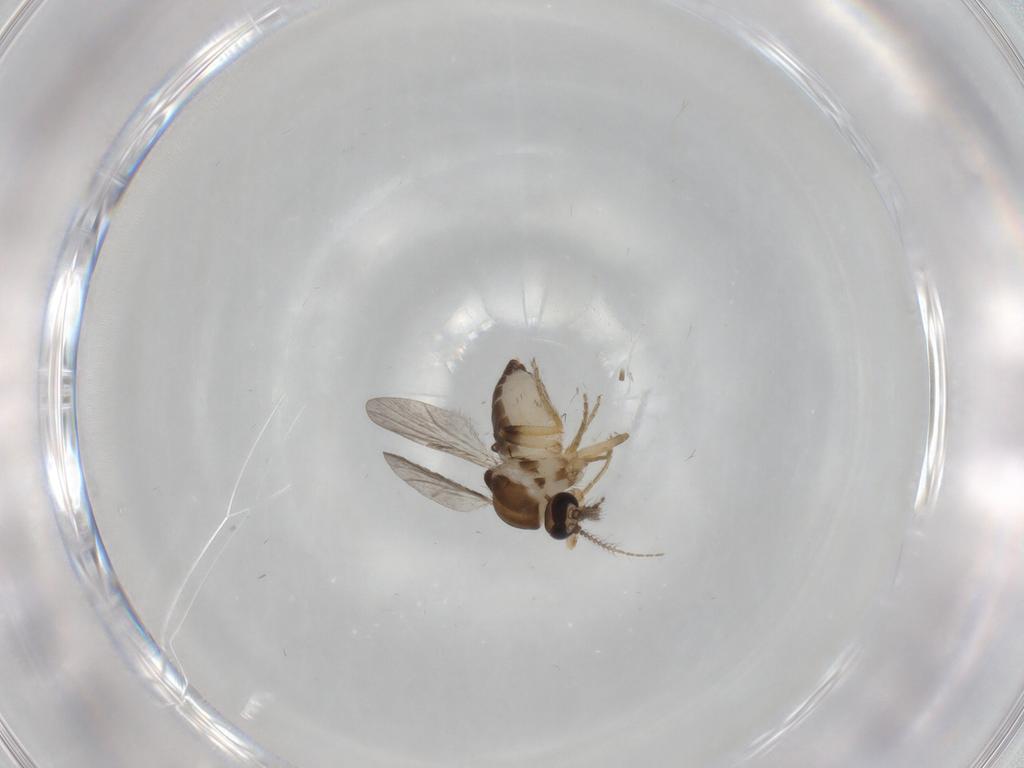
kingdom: Animalia
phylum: Arthropoda
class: Insecta
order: Diptera
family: Ceratopogonidae
